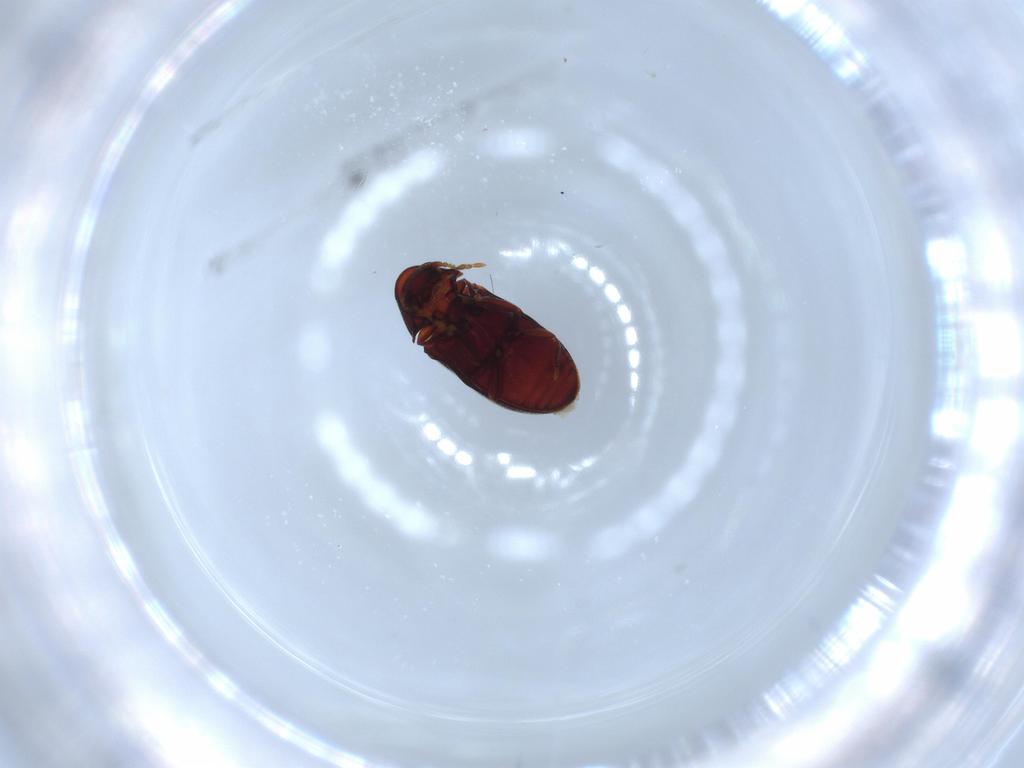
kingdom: Animalia
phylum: Arthropoda
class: Insecta
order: Coleoptera
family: Ptinidae
